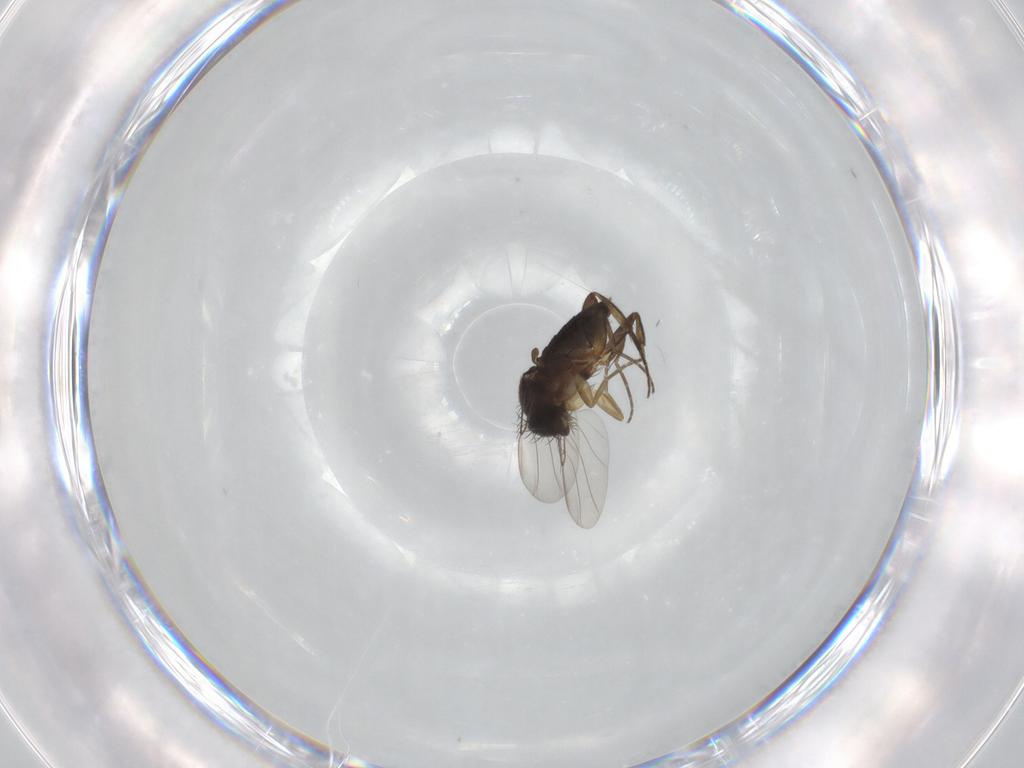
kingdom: Animalia
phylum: Arthropoda
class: Insecta
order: Diptera
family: Phoridae
